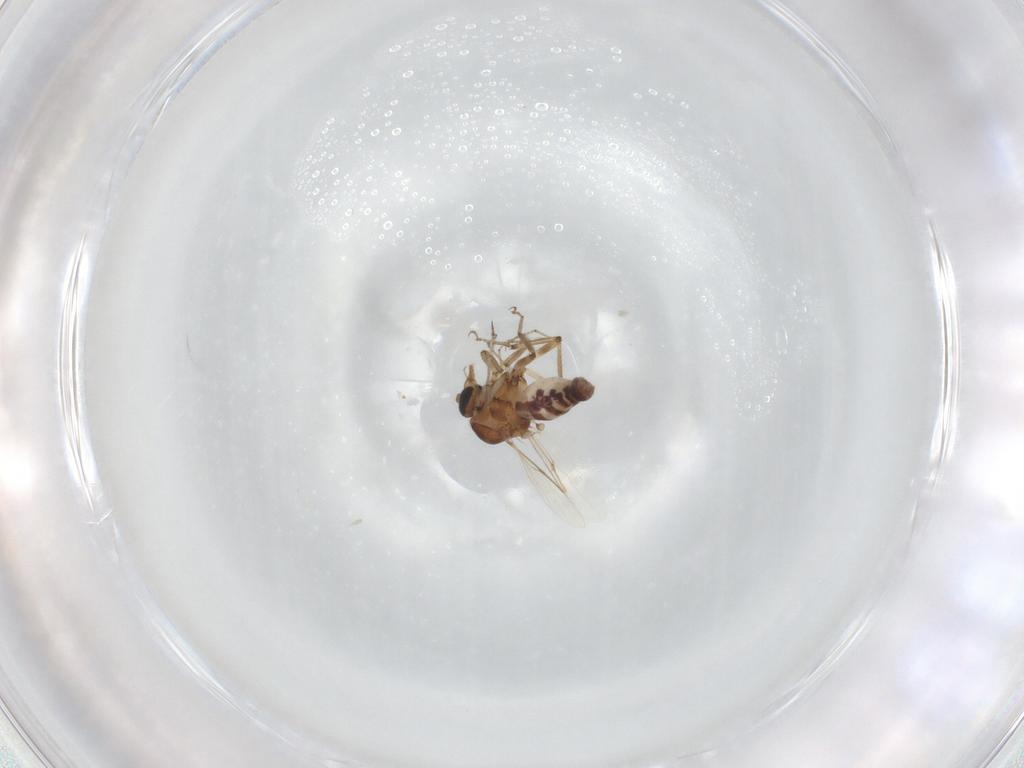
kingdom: Animalia
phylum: Arthropoda
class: Insecta
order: Diptera
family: Ceratopogonidae
